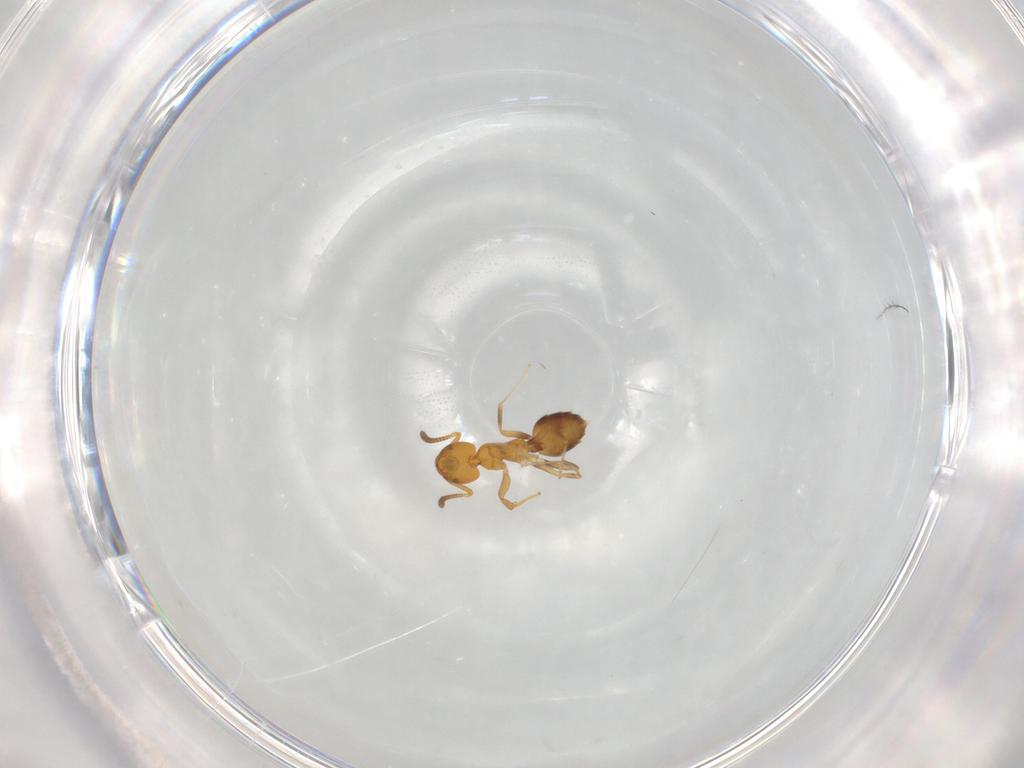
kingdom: Animalia
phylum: Arthropoda
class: Insecta
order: Hymenoptera
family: Formicidae
